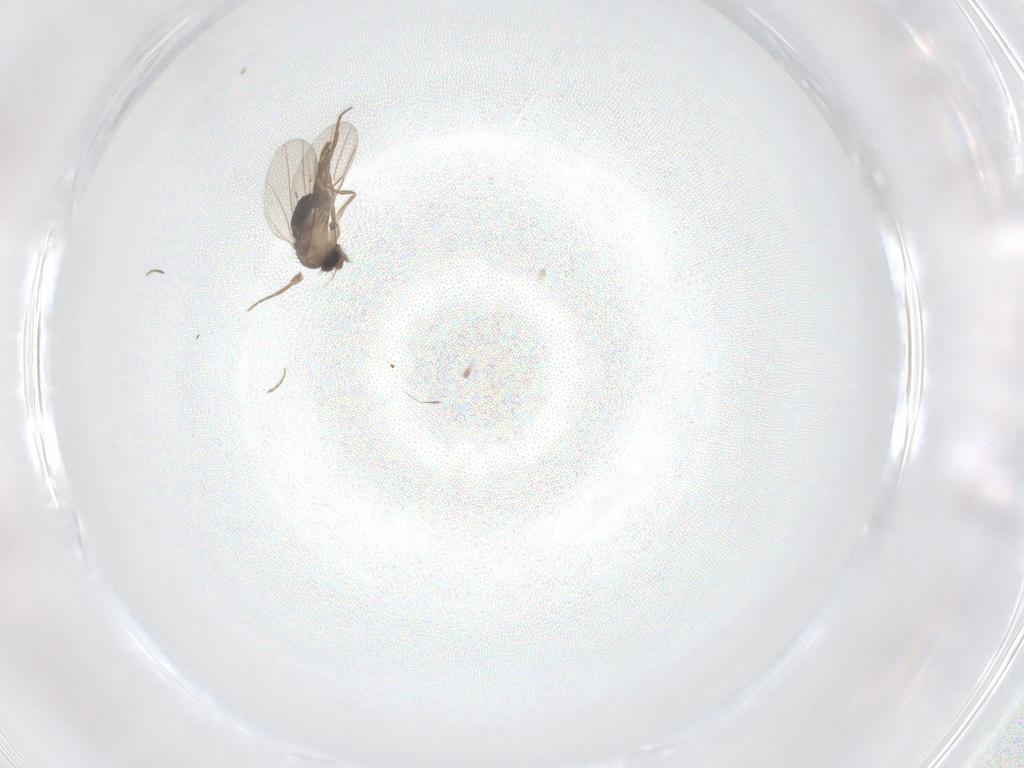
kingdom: Animalia
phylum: Arthropoda
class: Insecta
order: Diptera
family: Phoridae
